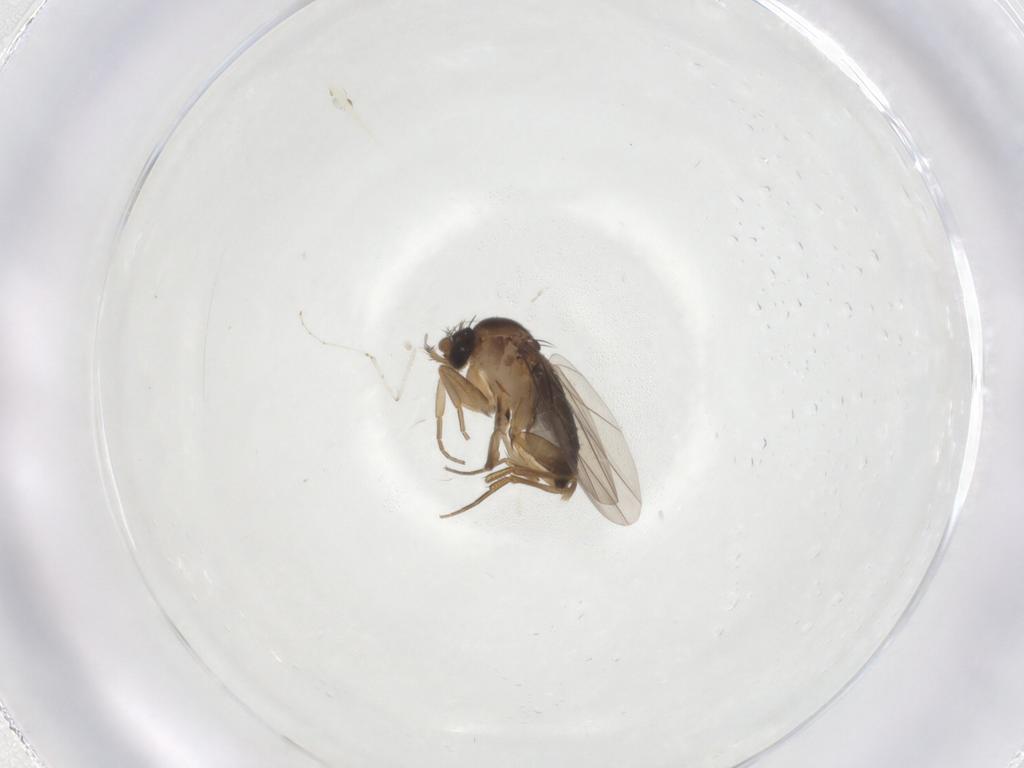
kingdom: Animalia
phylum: Arthropoda
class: Insecta
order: Diptera
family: Phoridae
